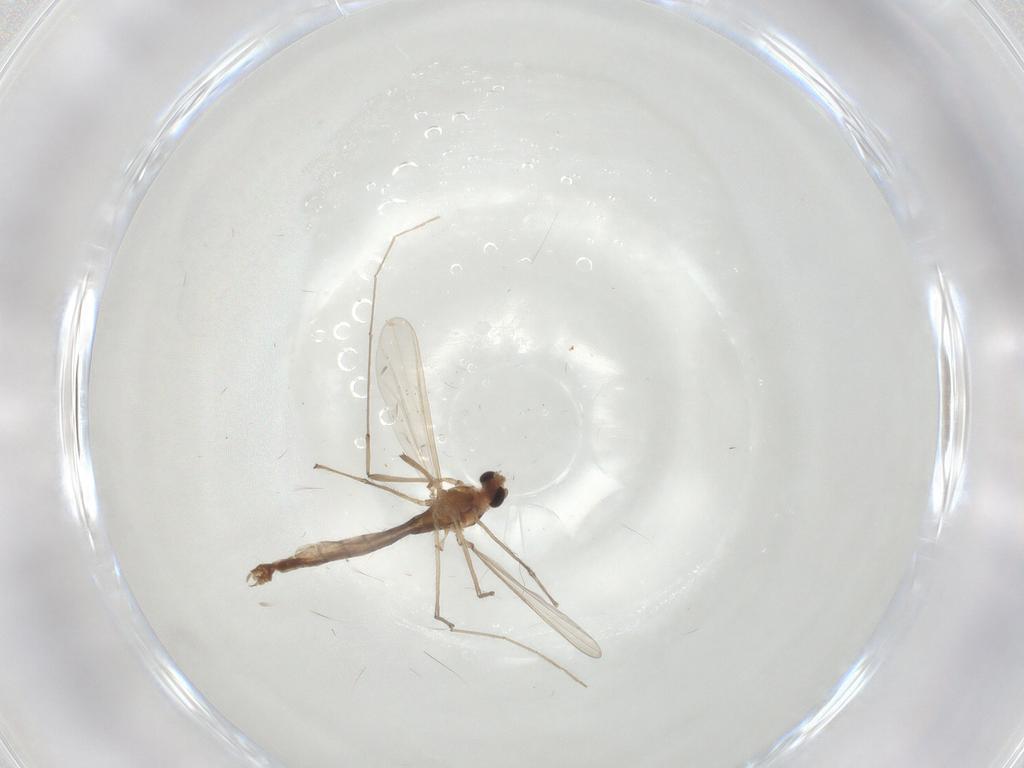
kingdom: Animalia
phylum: Arthropoda
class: Insecta
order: Diptera
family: Chironomidae
